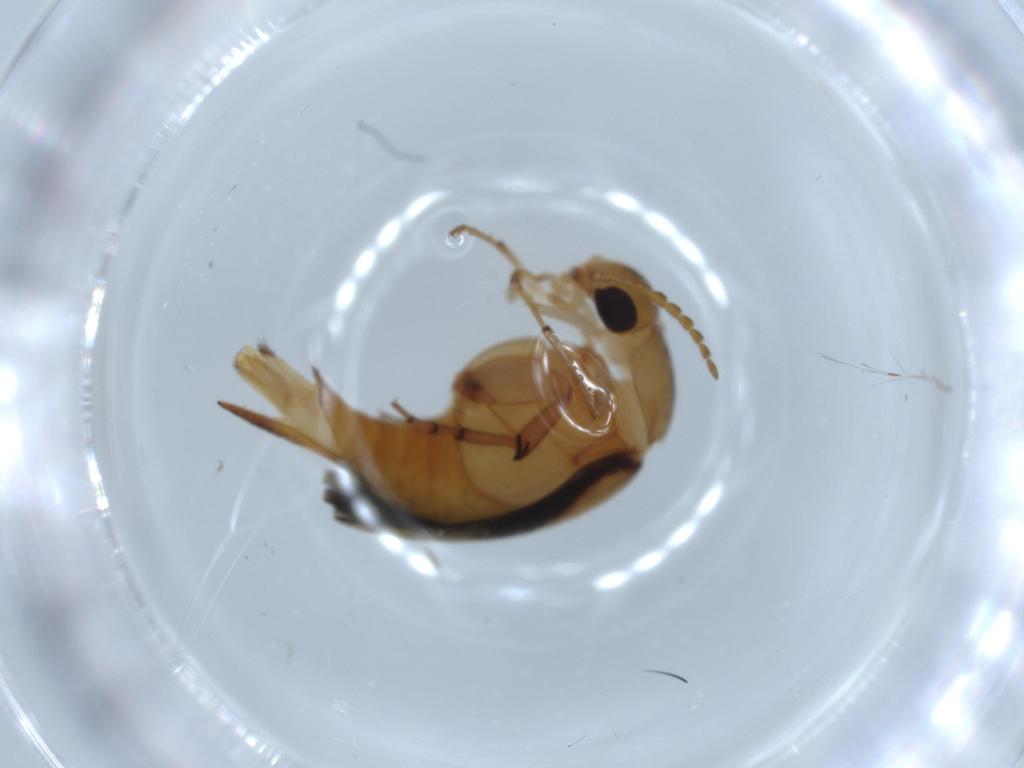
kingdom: Animalia
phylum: Arthropoda
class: Insecta
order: Coleoptera
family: Mordellidae
